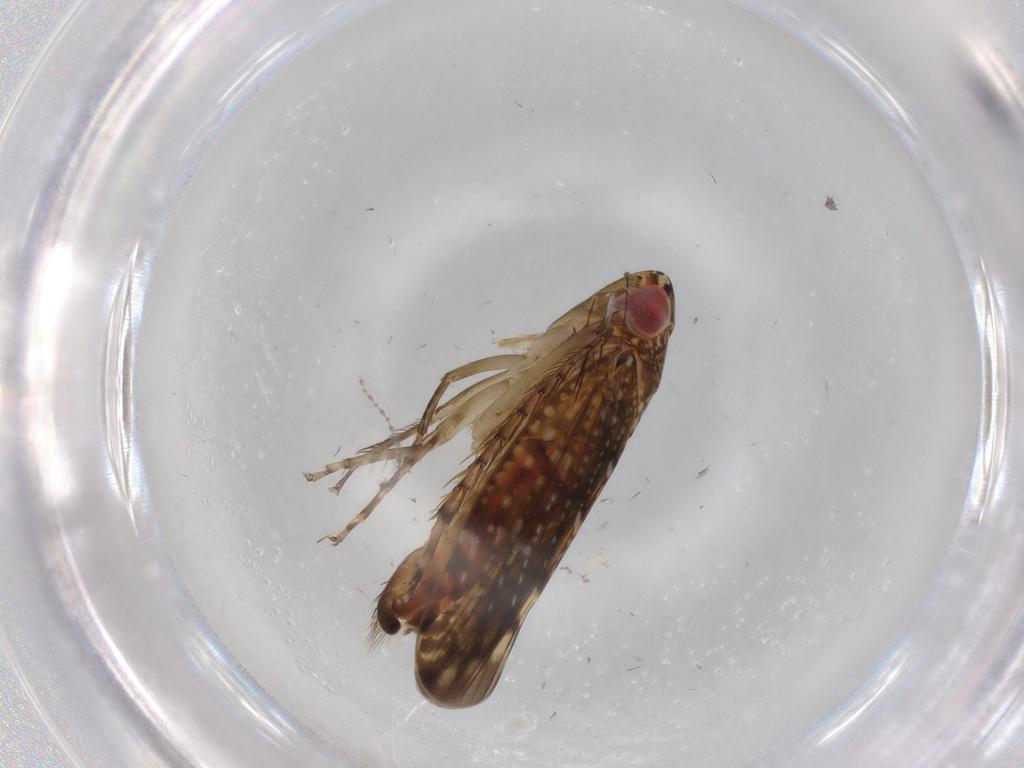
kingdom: Animalia
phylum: Arthropoda
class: Insecta
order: Hemiptera
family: Cicadellidae
